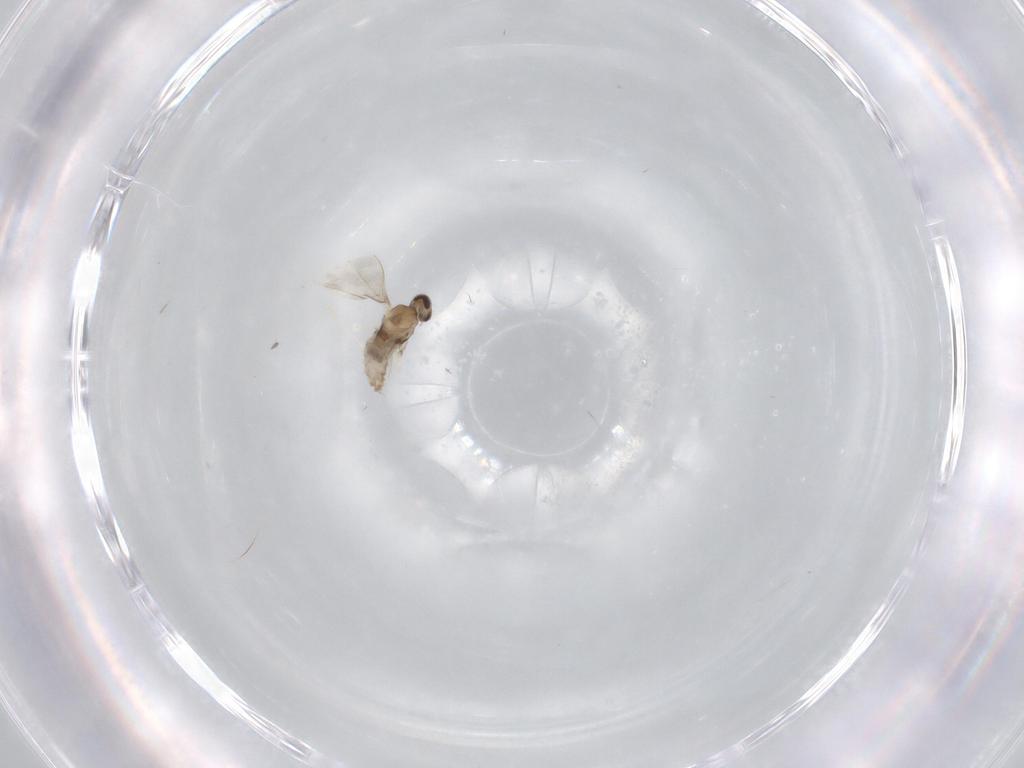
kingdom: Animalia
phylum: Arthropoda
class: Insecta
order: Diptera
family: Cecidomyiidae
